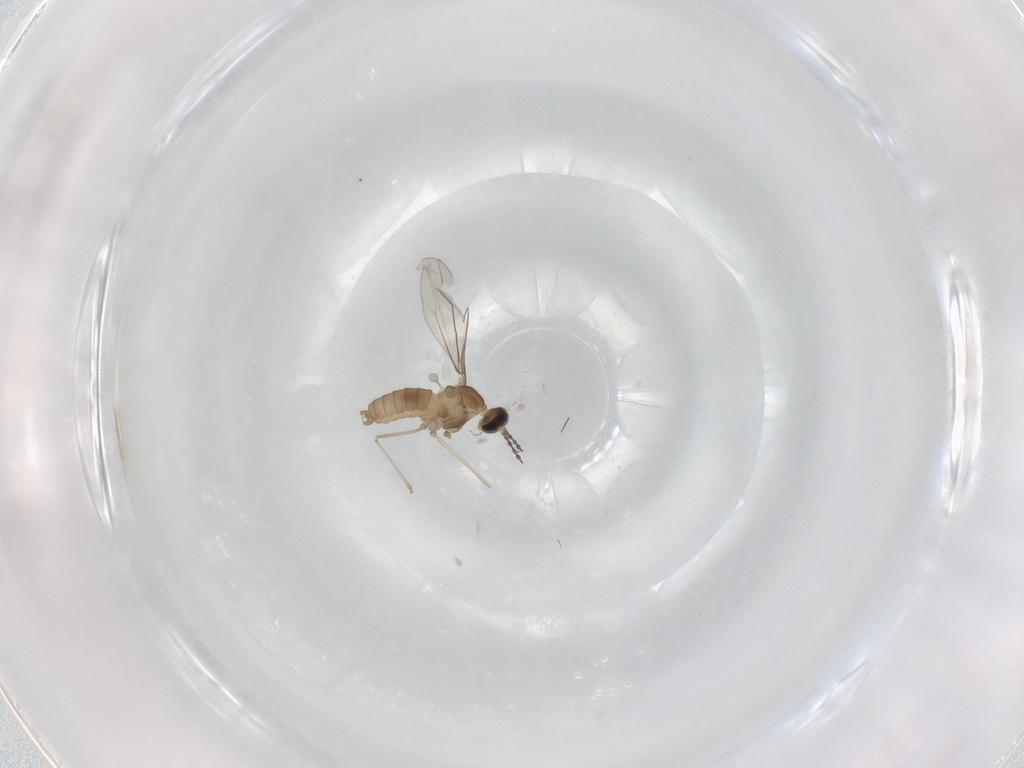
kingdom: Animalia
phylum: Arthropoda
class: Insecta
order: Diptera
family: Cecidomyiidae
